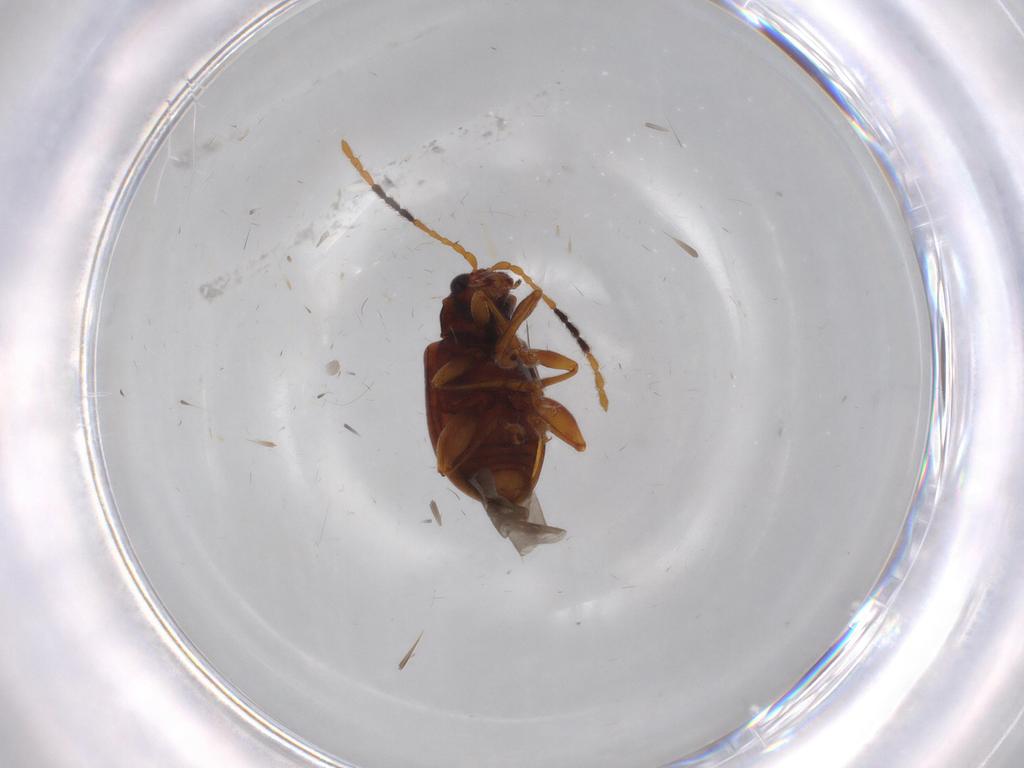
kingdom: Animalia
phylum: Arthropoda
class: Insecta
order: Coleoptera
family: Chrysomelidae
